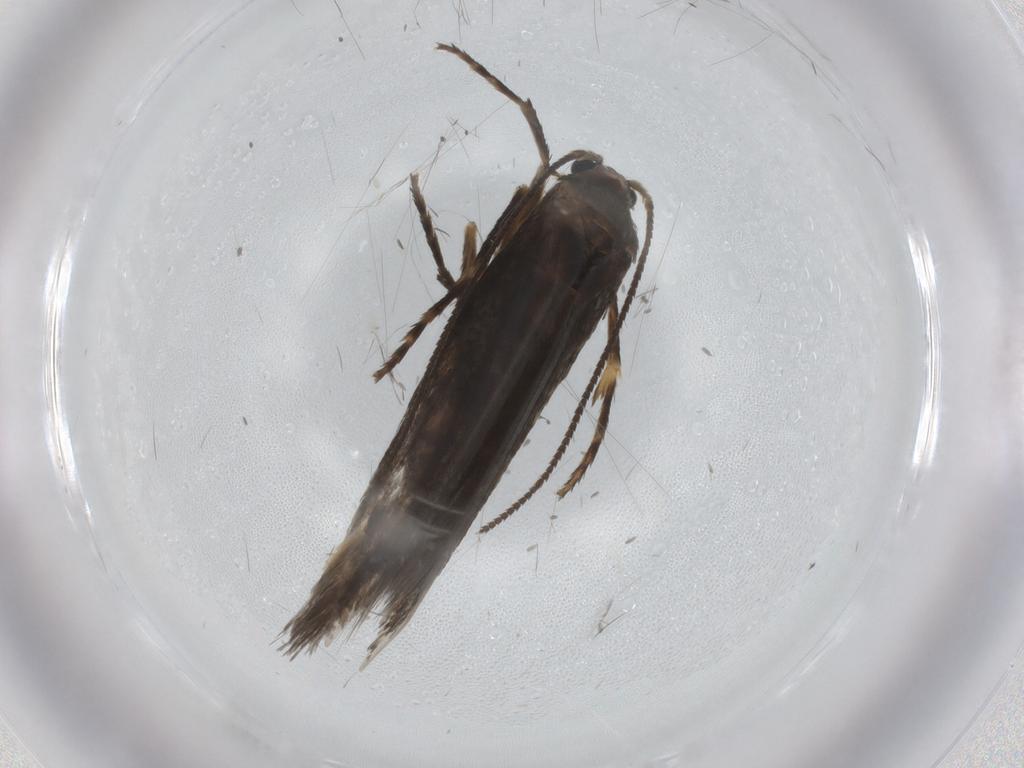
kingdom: Animalia
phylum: Arthropoda
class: Insecta
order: Lepidoptera
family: Nepticulidae
